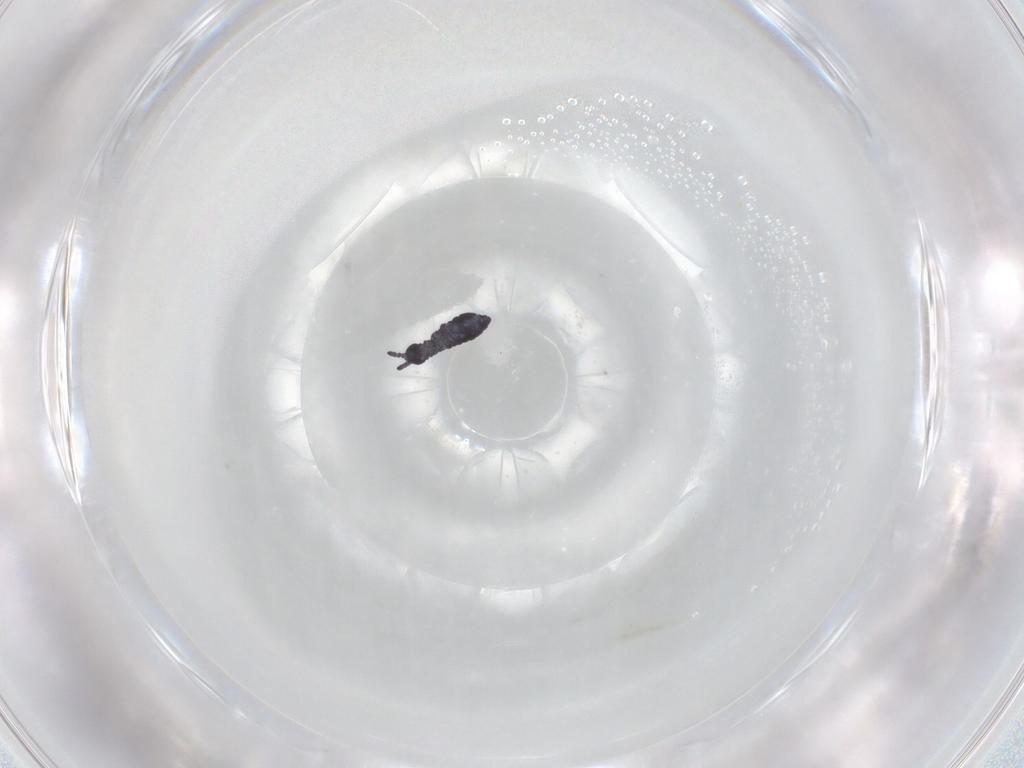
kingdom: Animalia
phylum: Arthropoda
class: Collembola
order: Poduromorpha
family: Hypogastruridae
